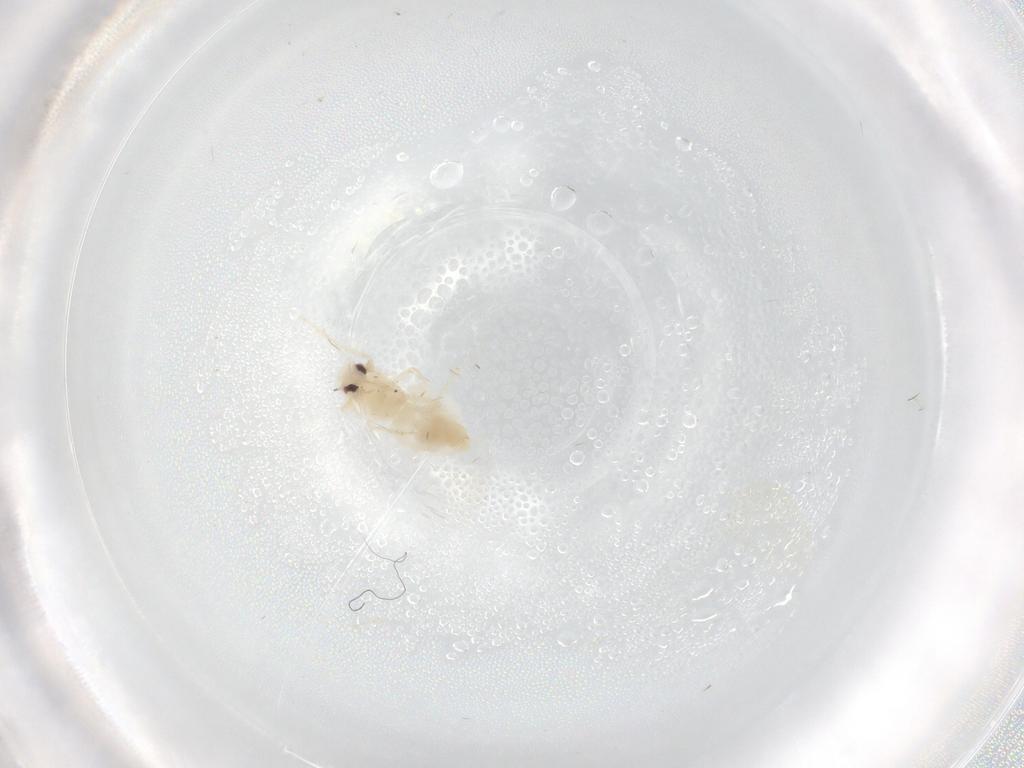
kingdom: Animalia
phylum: Arthropoda
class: Insecta
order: Hemiptera
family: Aleyrodidae
